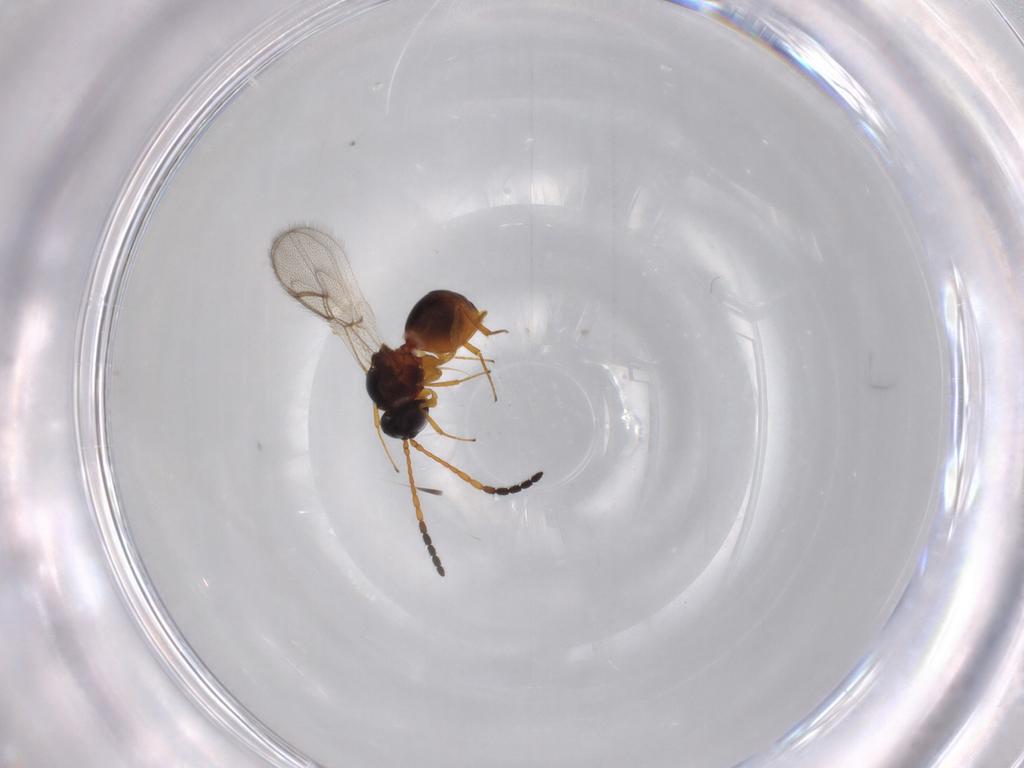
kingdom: Animalia
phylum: Arthropoda
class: Insecta
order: Hymenoptera
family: Figitidae
